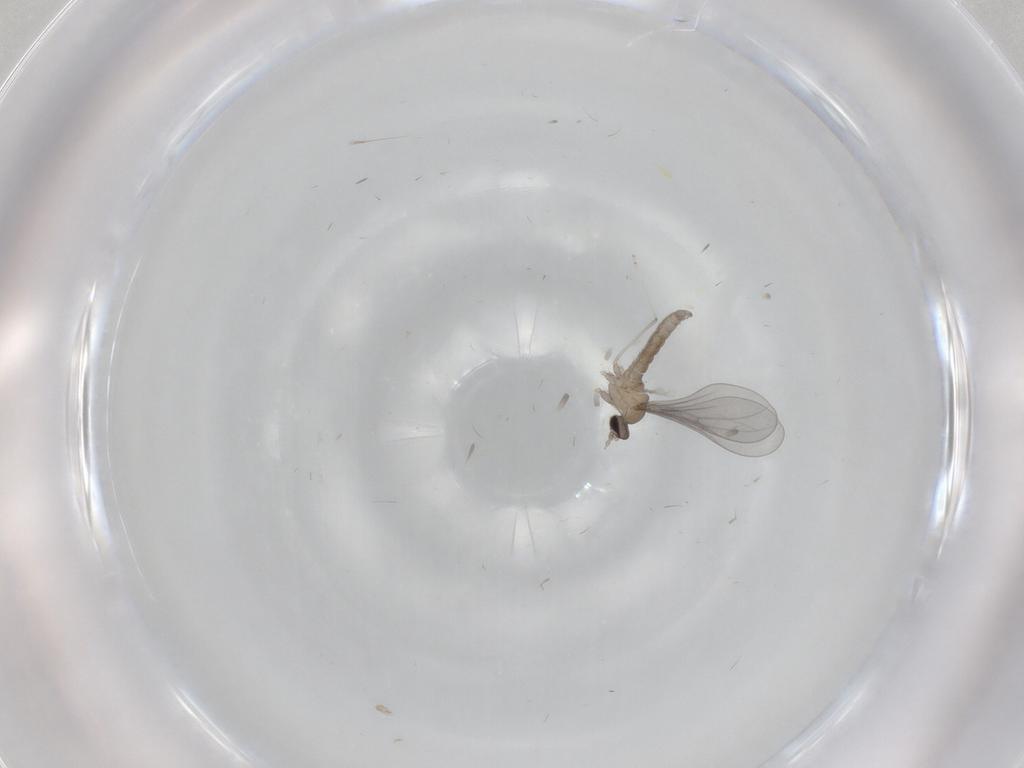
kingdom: Animalia
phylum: Arthropoda
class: Insecta
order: Diptera
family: Cecidomyiidae
